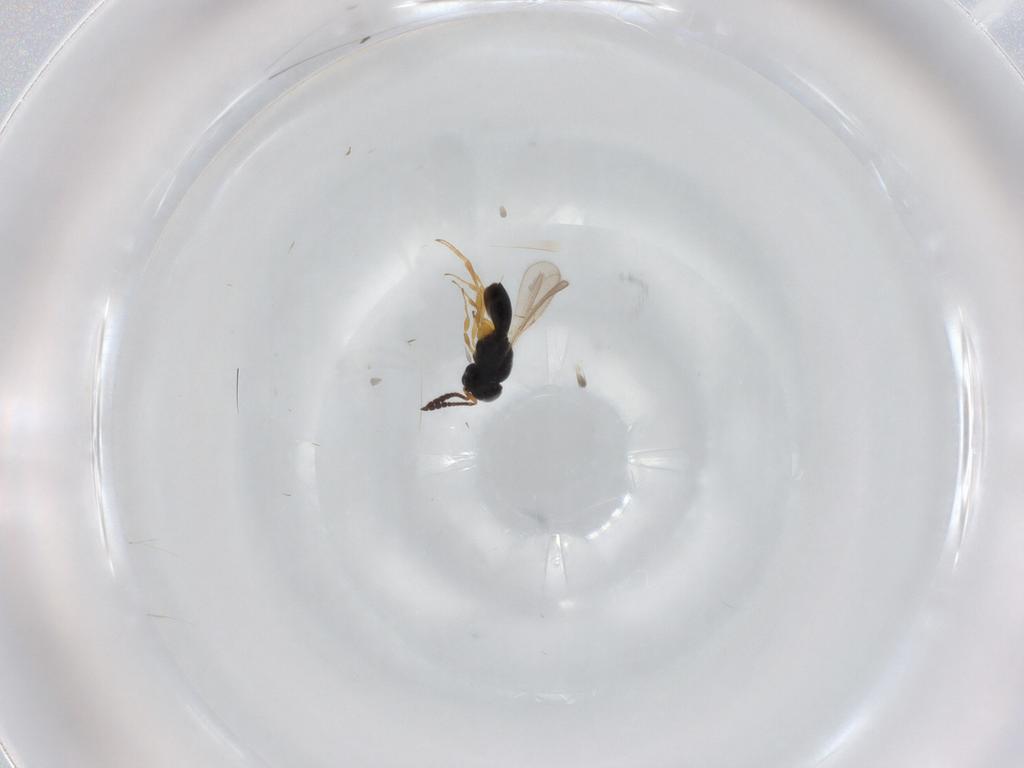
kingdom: Animalia
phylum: Arthropoda
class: Insecta
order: Hymenoptera
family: Scelionidae
